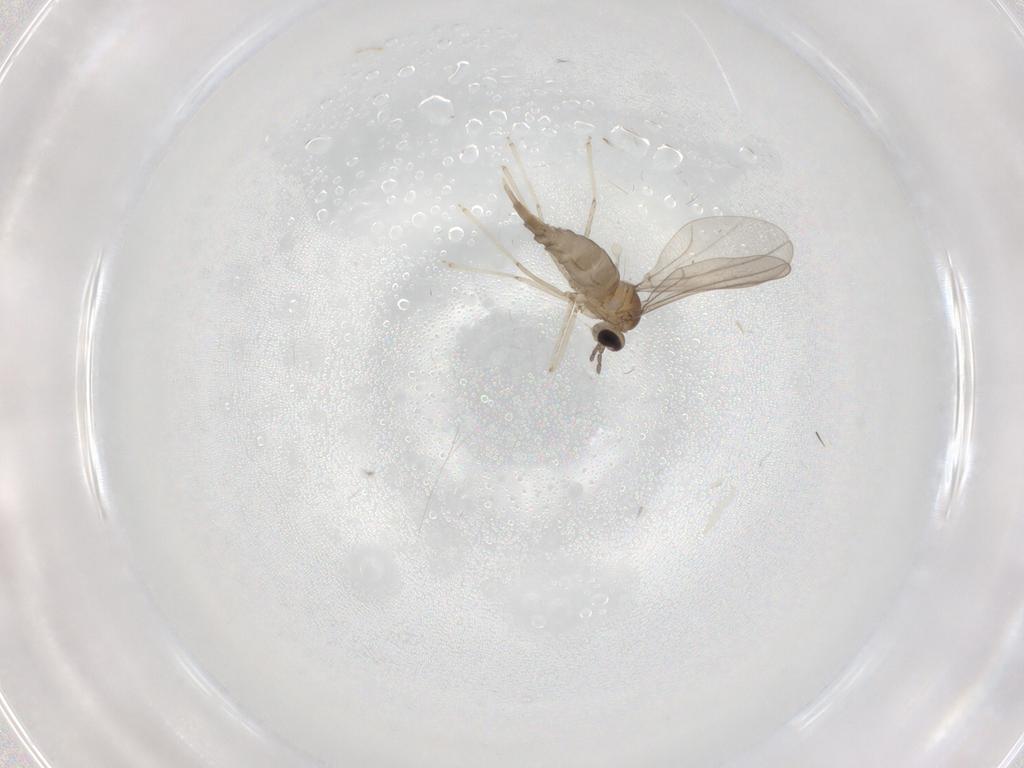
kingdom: Animalia
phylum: Arthropoda
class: Insecta
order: Diptera
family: Cecidomyiidae
